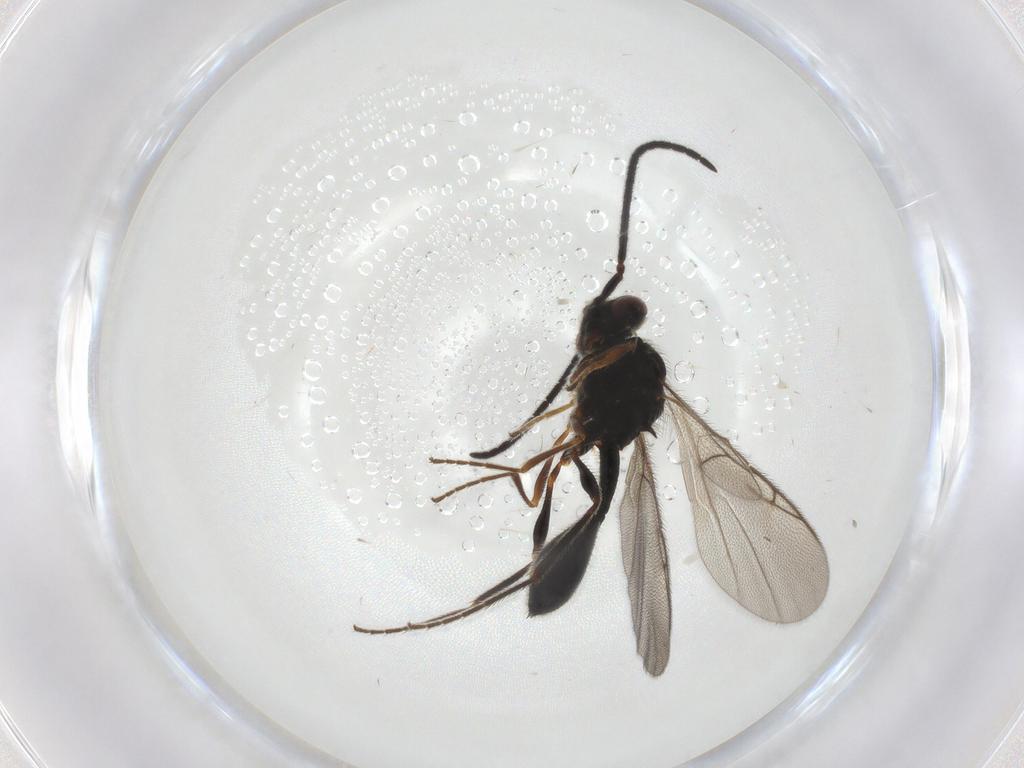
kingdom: Animalia
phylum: Arthropoda
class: Insecta
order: Hymenoptera
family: Diapriidae
